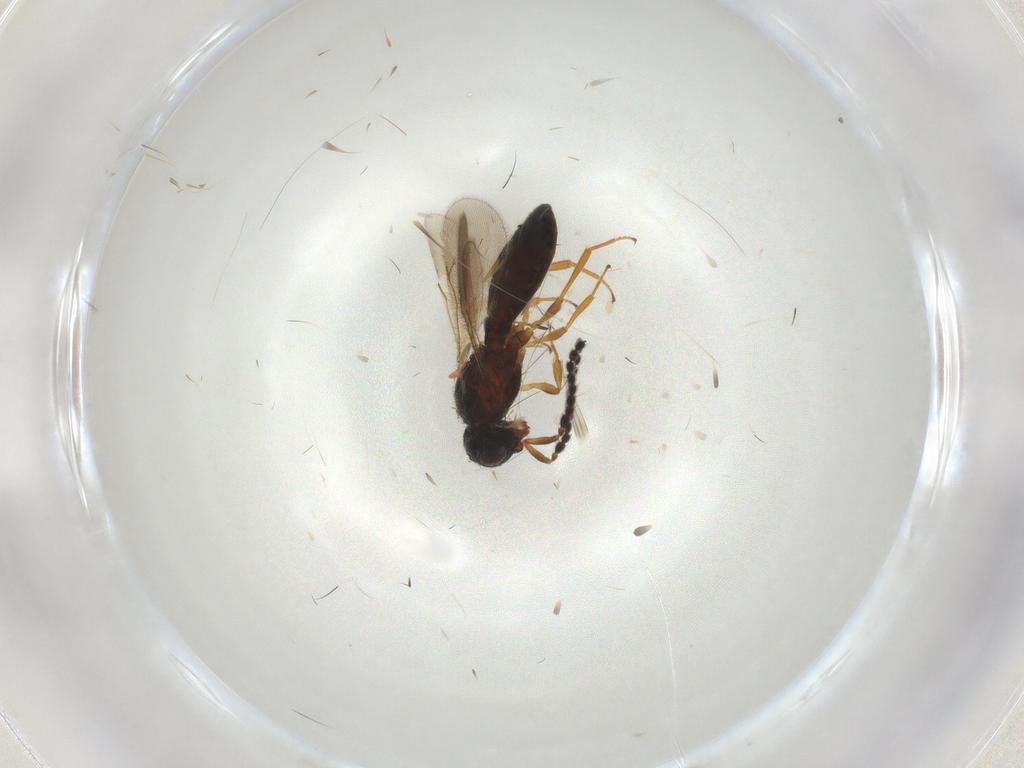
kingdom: Animalia
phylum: Arthropoda
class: Insecta
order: Hymenoptera
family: Scelionidae
